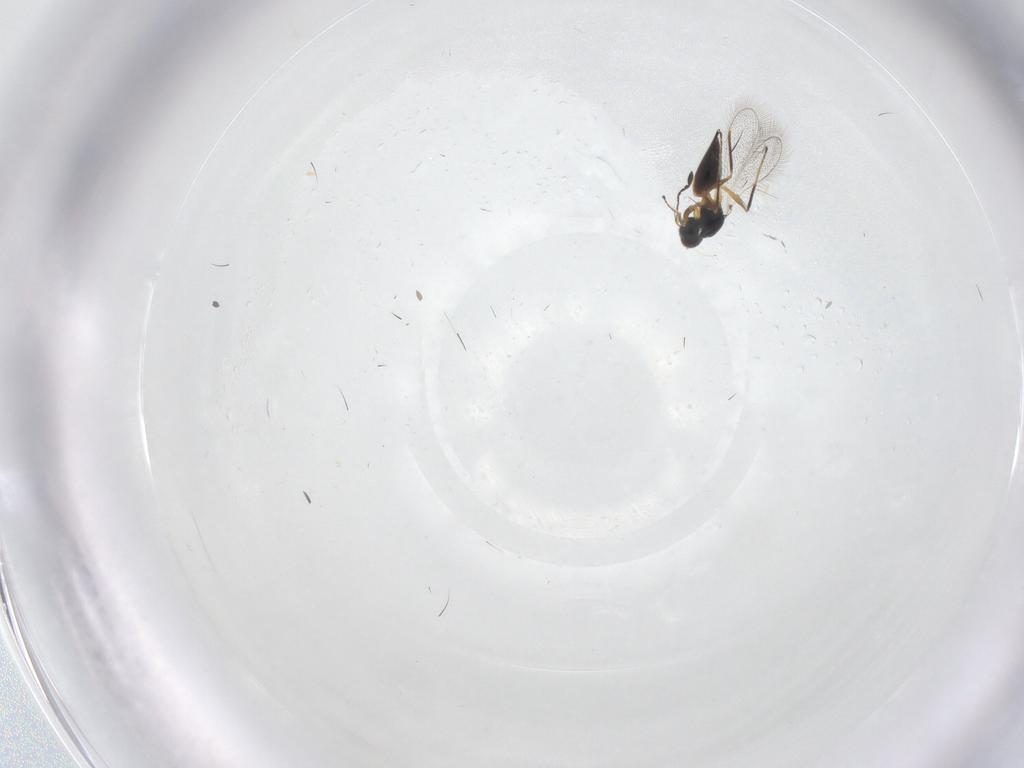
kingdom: Animalia
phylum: Arthropoda
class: Insecta
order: Hymenoptera
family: Mymaridae
